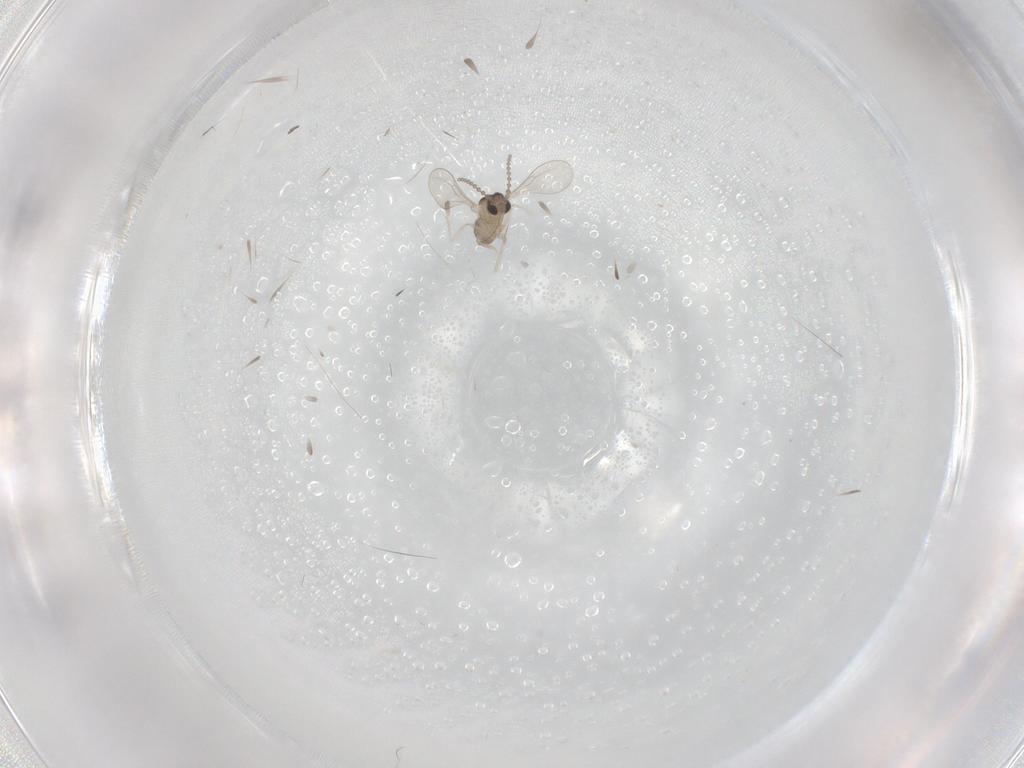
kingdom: Animalia
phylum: Arthropoda
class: Insecta
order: Diptera
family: Cecidomyiidae
